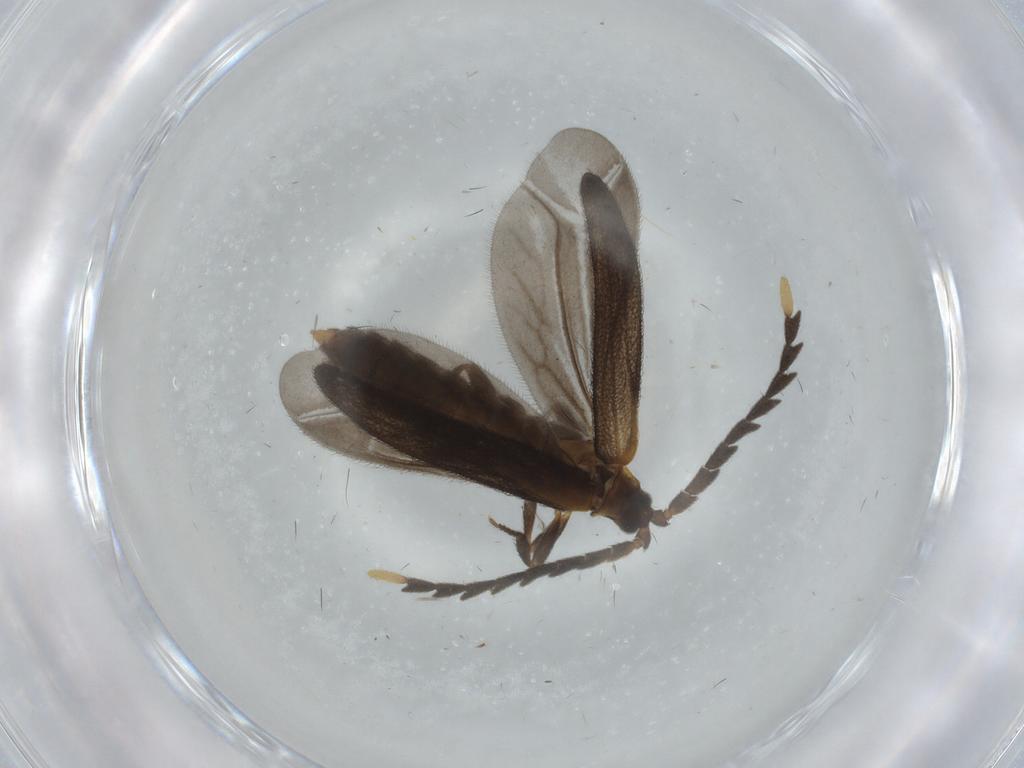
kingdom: Animalia
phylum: Arthropoda
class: Insecta
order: Coleoptera
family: Lycidae
